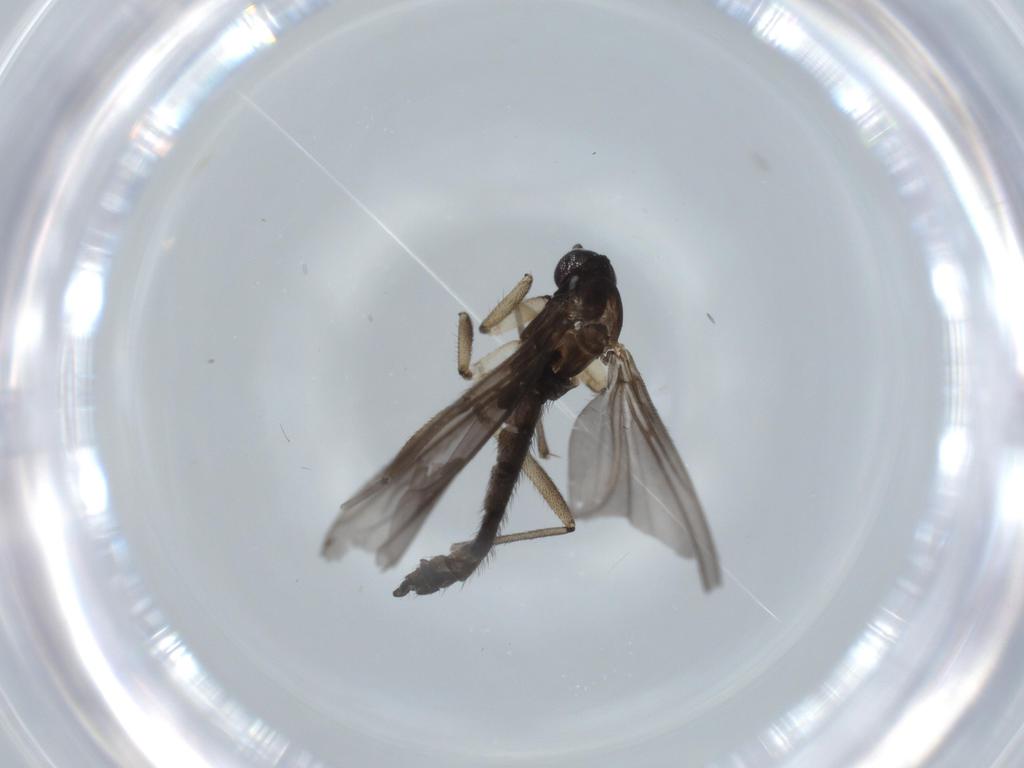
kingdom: Animalia
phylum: Arthropoda
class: Insecta
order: Diptera
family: Sciaridae
